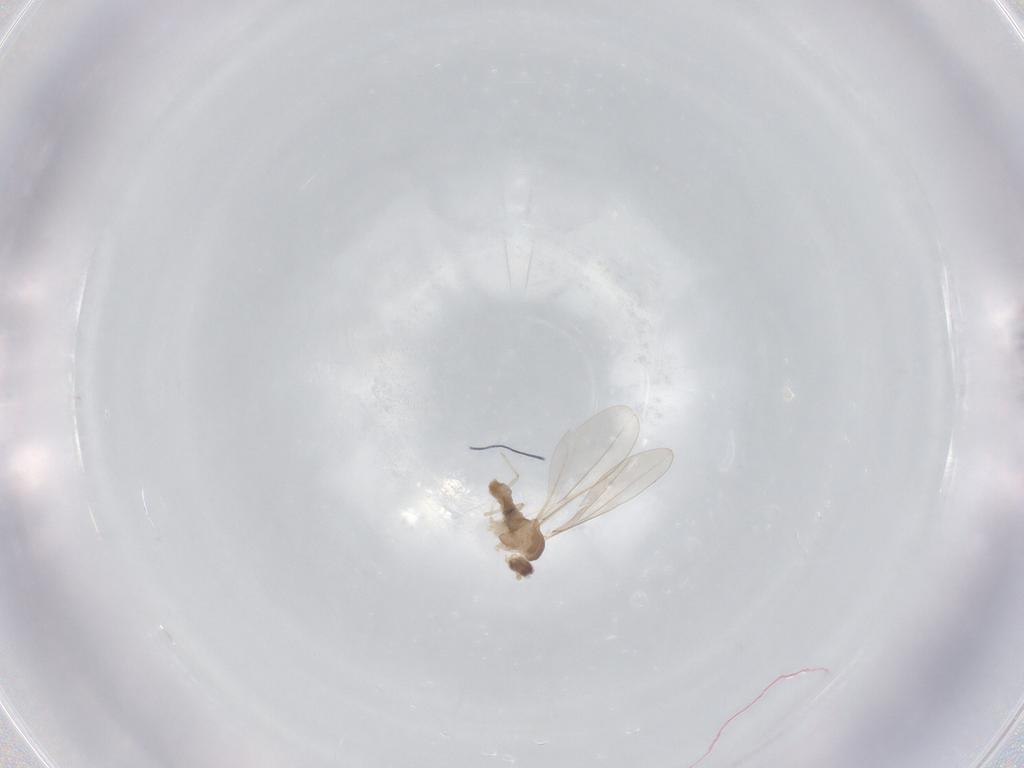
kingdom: Animalia
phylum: Arthropoda
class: Insecta
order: Diptera
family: Cecidomyiidae
